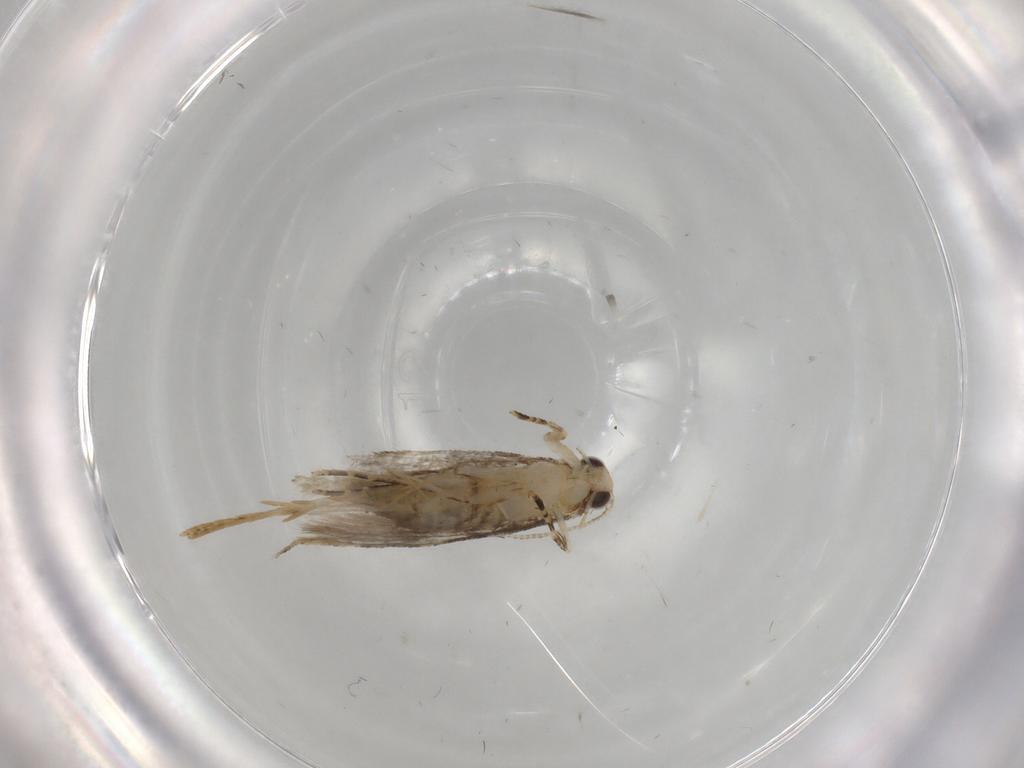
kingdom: Animalia
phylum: Arthropoda
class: Insecta
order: Lepidoptera
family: Tineidae
